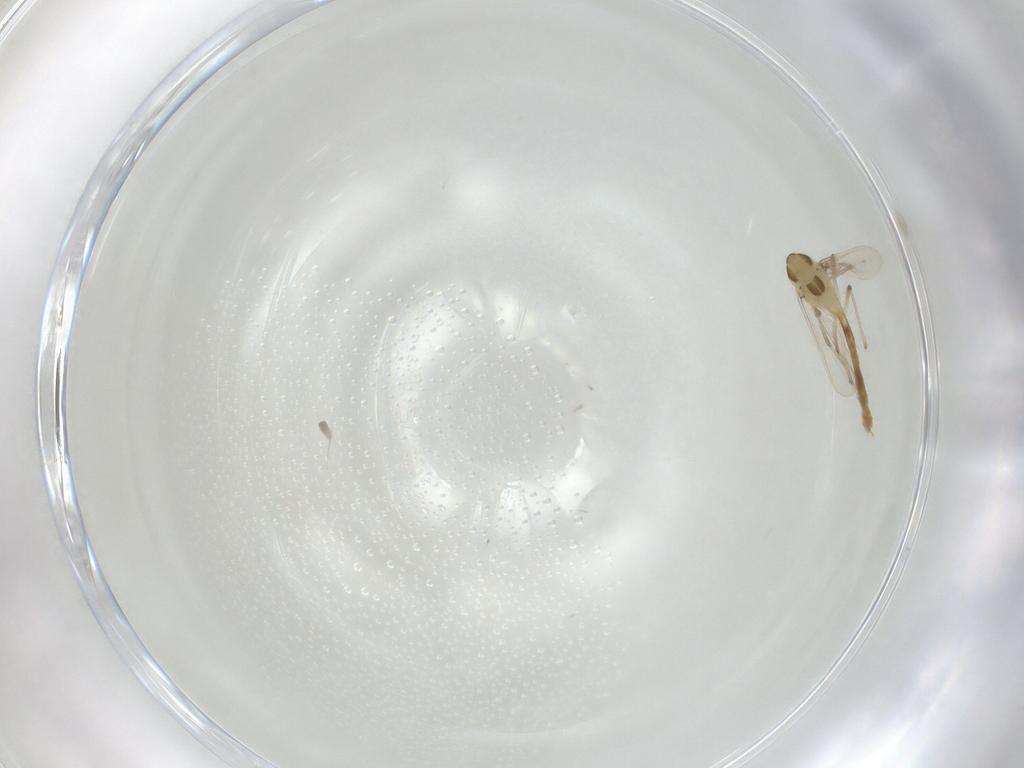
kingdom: Animalia
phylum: Arthropoda
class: Insecta
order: Diptera
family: Chironomidae
